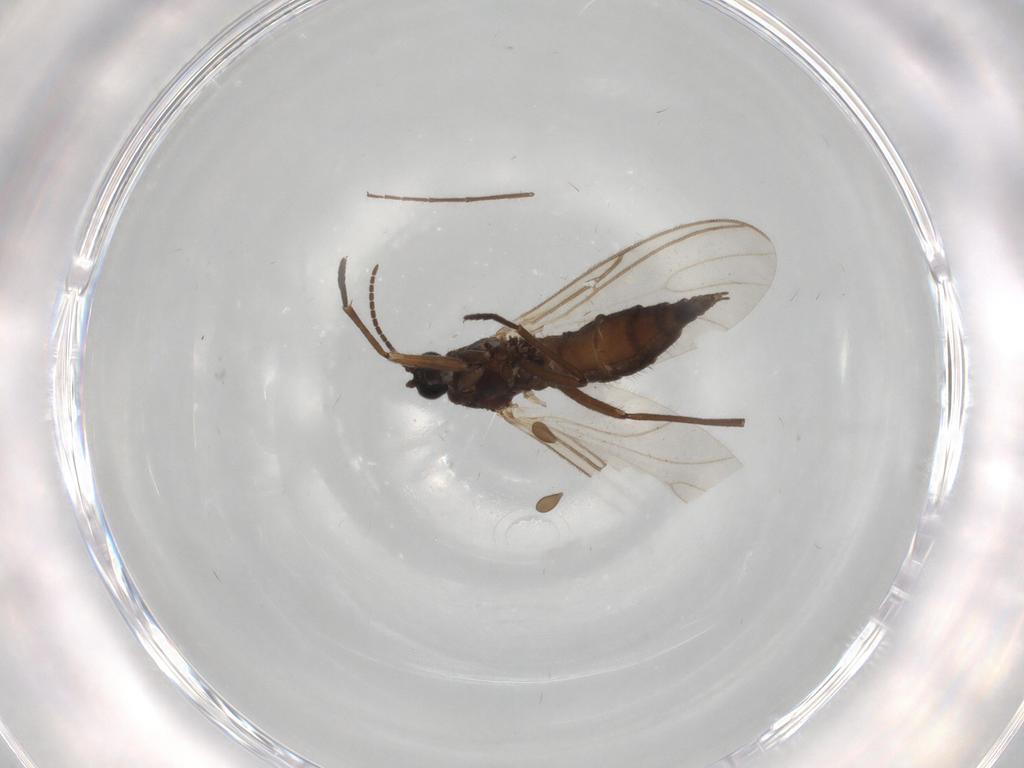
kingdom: Animalia
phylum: Arthropoda
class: Insecta
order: Diptera
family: Sciaridae
